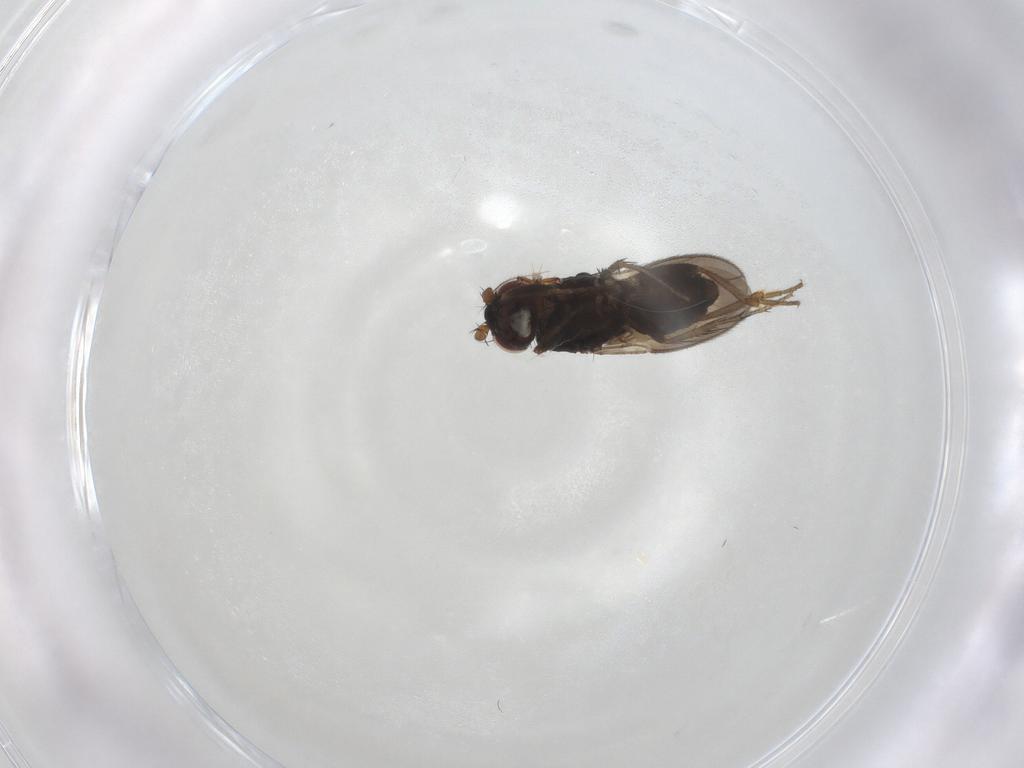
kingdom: Animalia
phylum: Arthropoda
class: Insecta
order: Diptera
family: Sphaeroceridae
